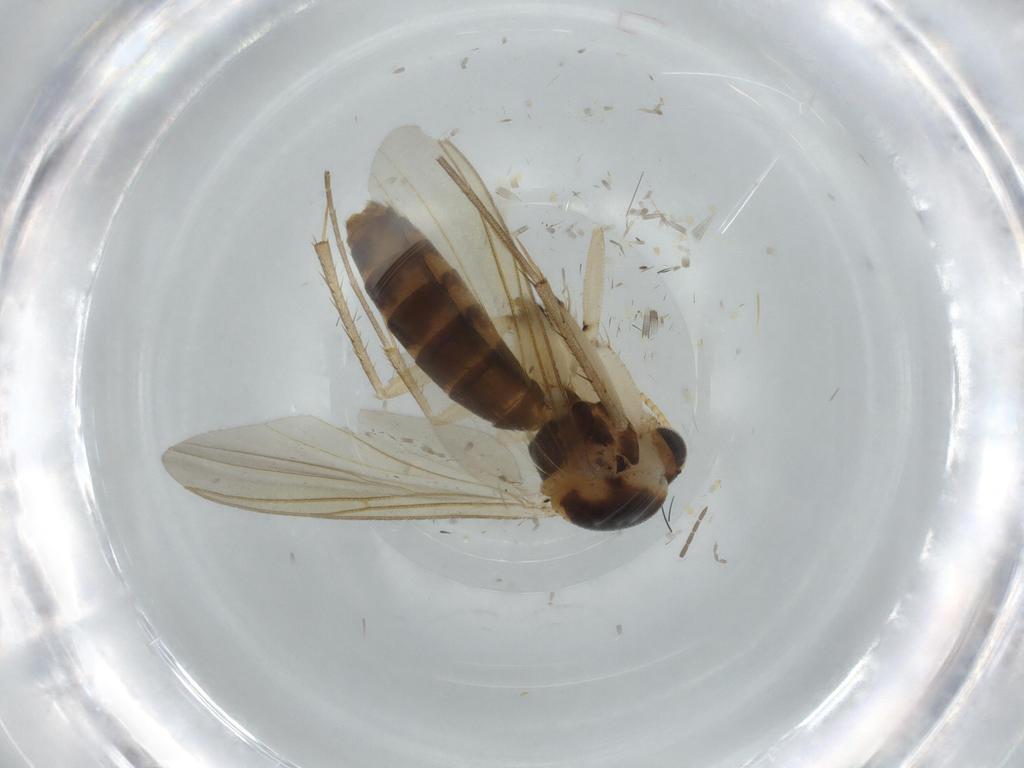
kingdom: Animalia
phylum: Arthropoda
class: Insecta
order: Diptera
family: Mycetophilidae
